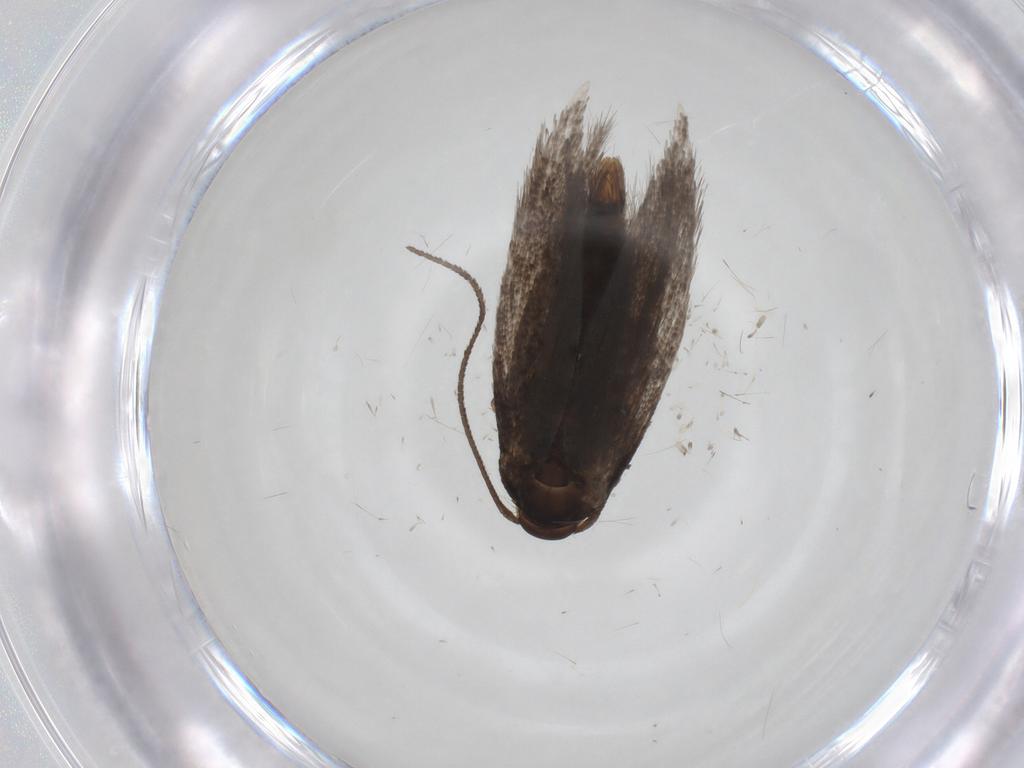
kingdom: Animalia
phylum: Arthropoda
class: Insecta
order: Lepidoptera
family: Elachistidae
